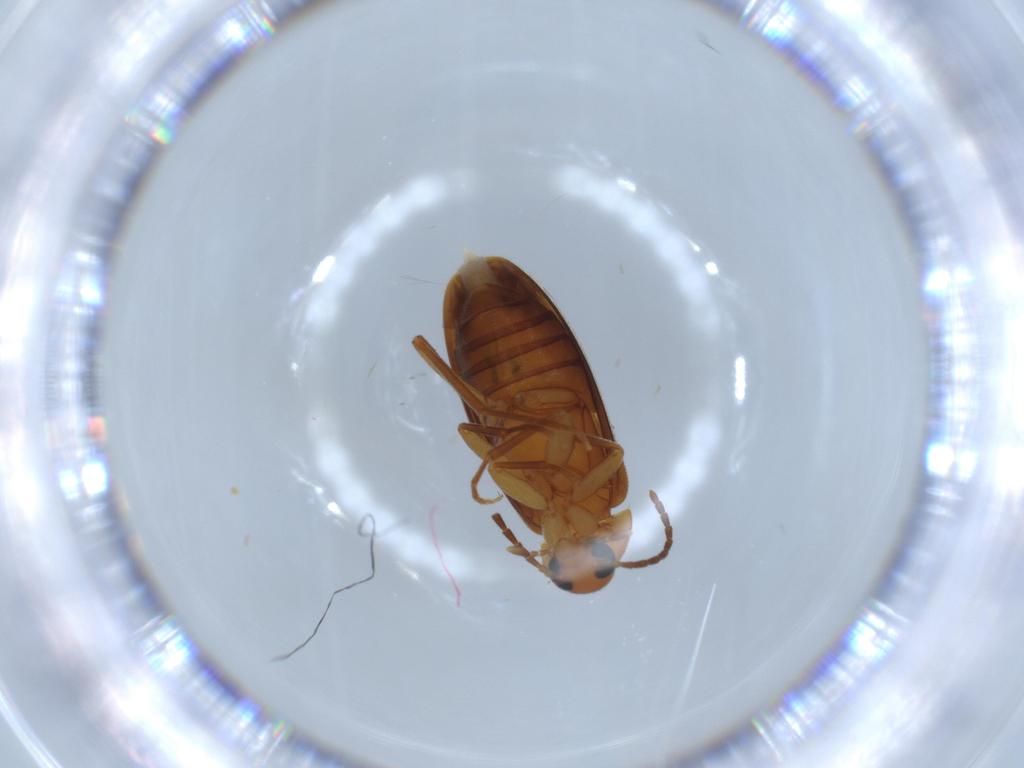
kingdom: Animalia
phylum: Arthropoda
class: Insecta
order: Coleoptera
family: Scraptiidae
